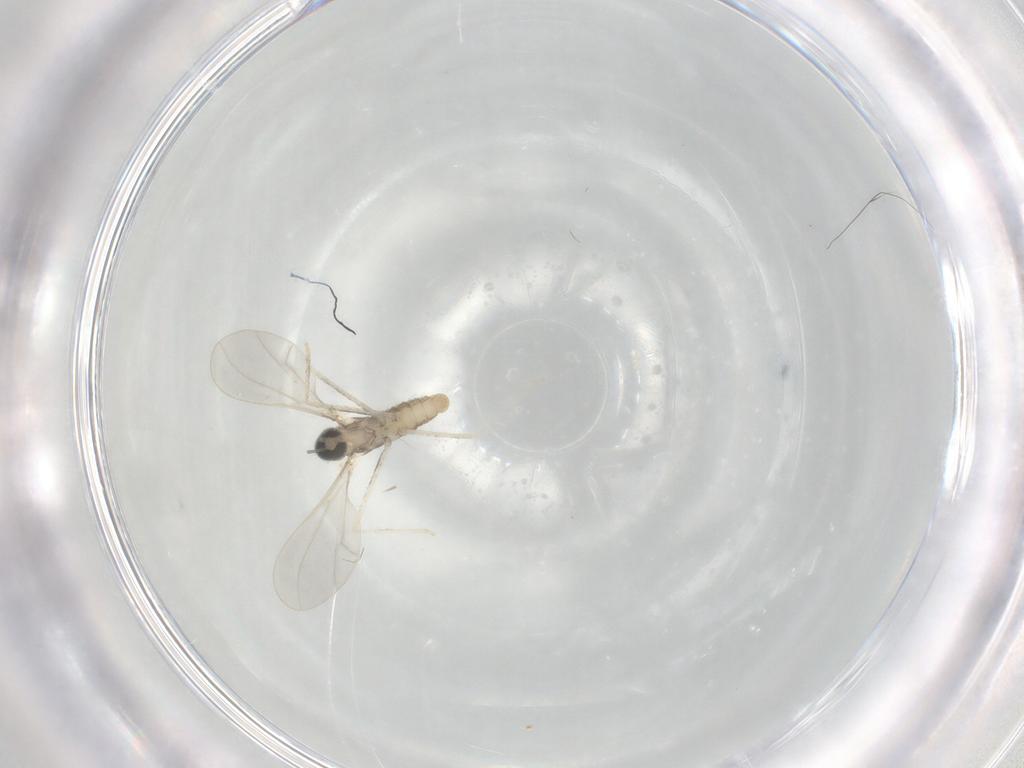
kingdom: Animalia
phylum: Arthropoda
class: Insecta
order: Diptera
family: Cecidomyiidae
